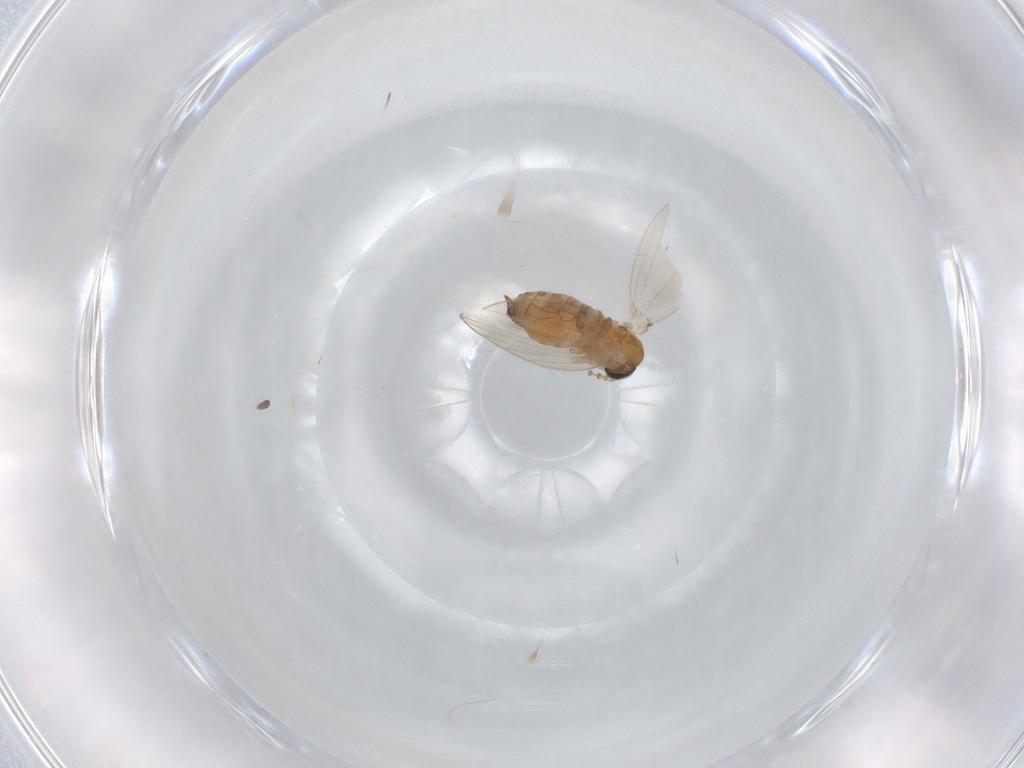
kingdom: Animalia
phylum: Arthropoda
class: Insecta
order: Diptera
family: Psychodidae
